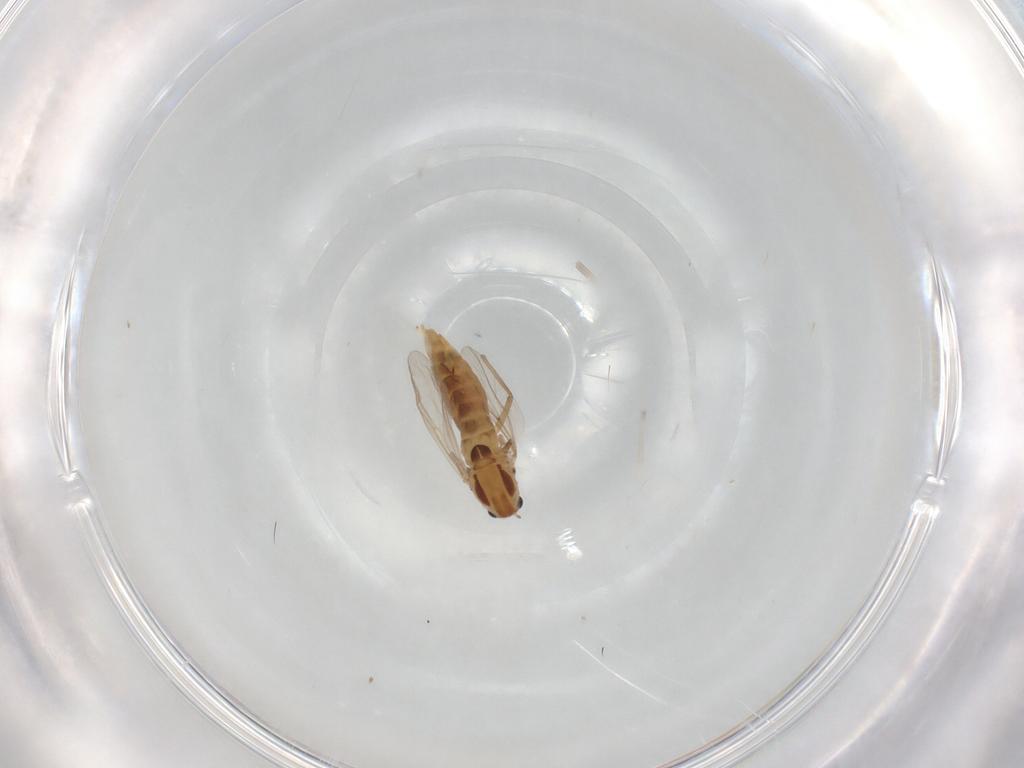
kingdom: Animalia
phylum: Arthropoda
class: Insecta
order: Diptera
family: Chironomidae
